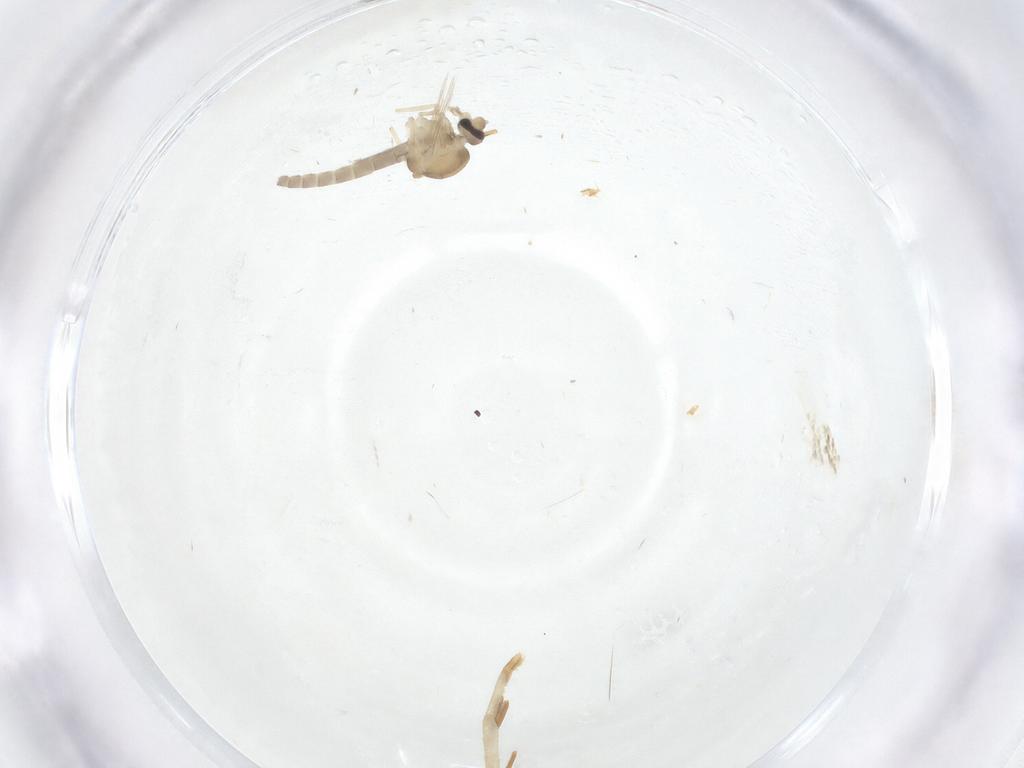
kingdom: Animalia
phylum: Arthropoda
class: Insecta
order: Diptera
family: Ceratopogonidae
